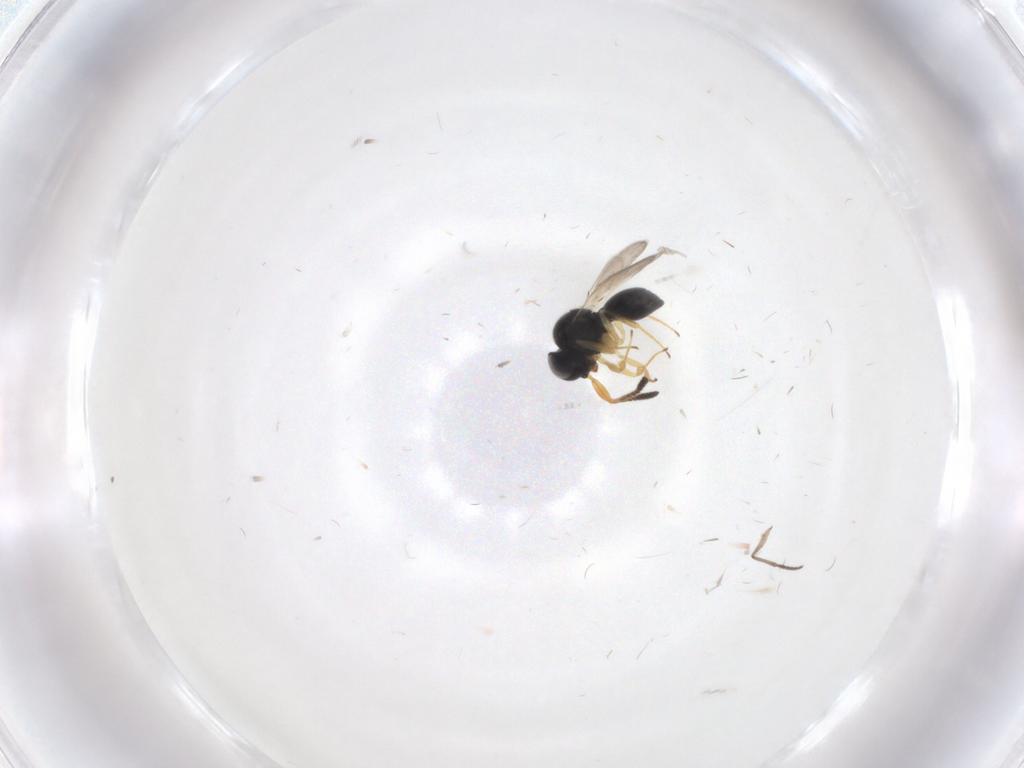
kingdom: Animalia
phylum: Arthropoda
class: Insecta
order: Hymenoptera
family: Scelionidae
